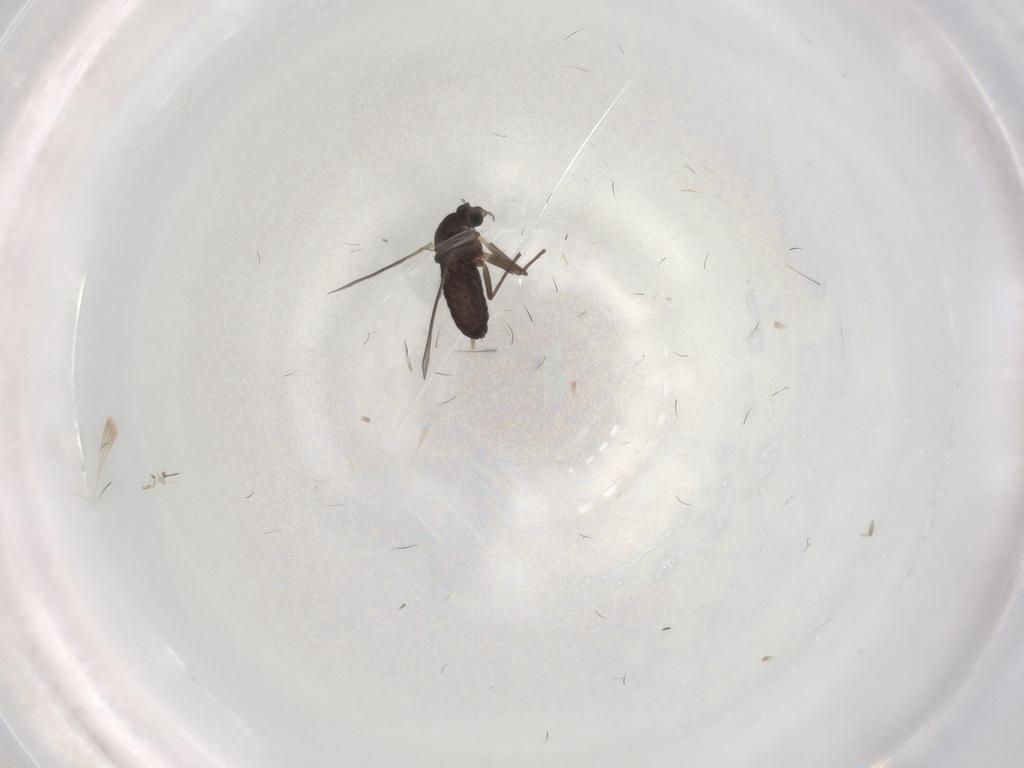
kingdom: Animalia
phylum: Arthropoda
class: Insecta
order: Diptera
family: Chironomidae
